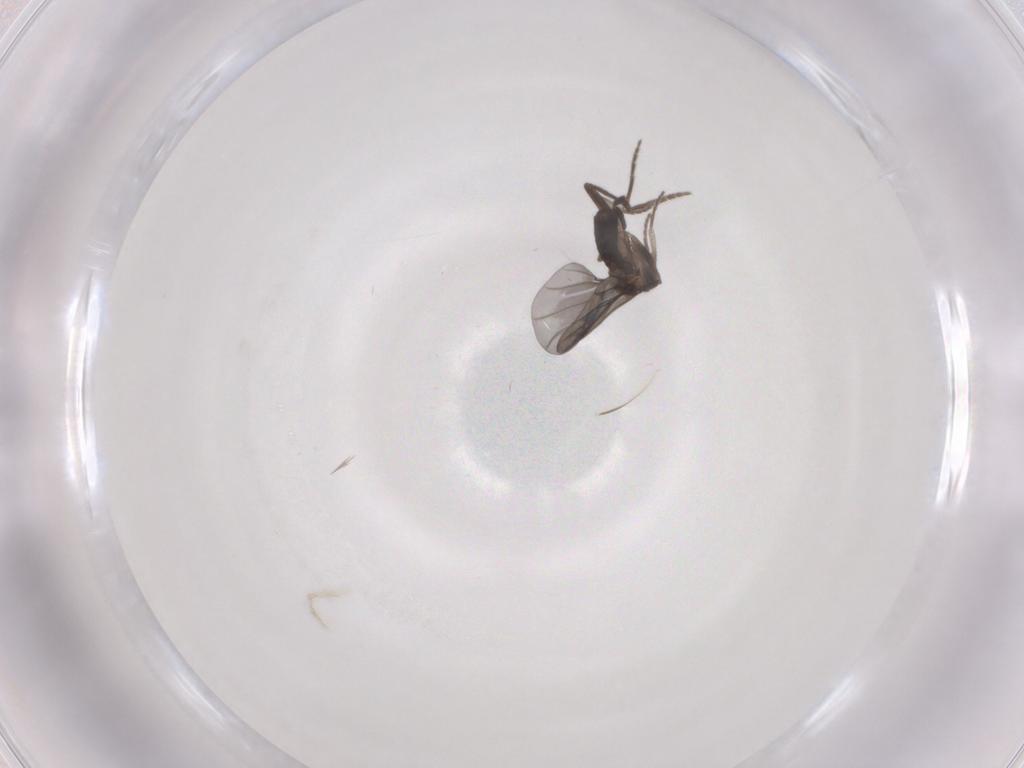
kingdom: Animalia
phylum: Arthropoda
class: Insecta
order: Diptera
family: Phoridae
